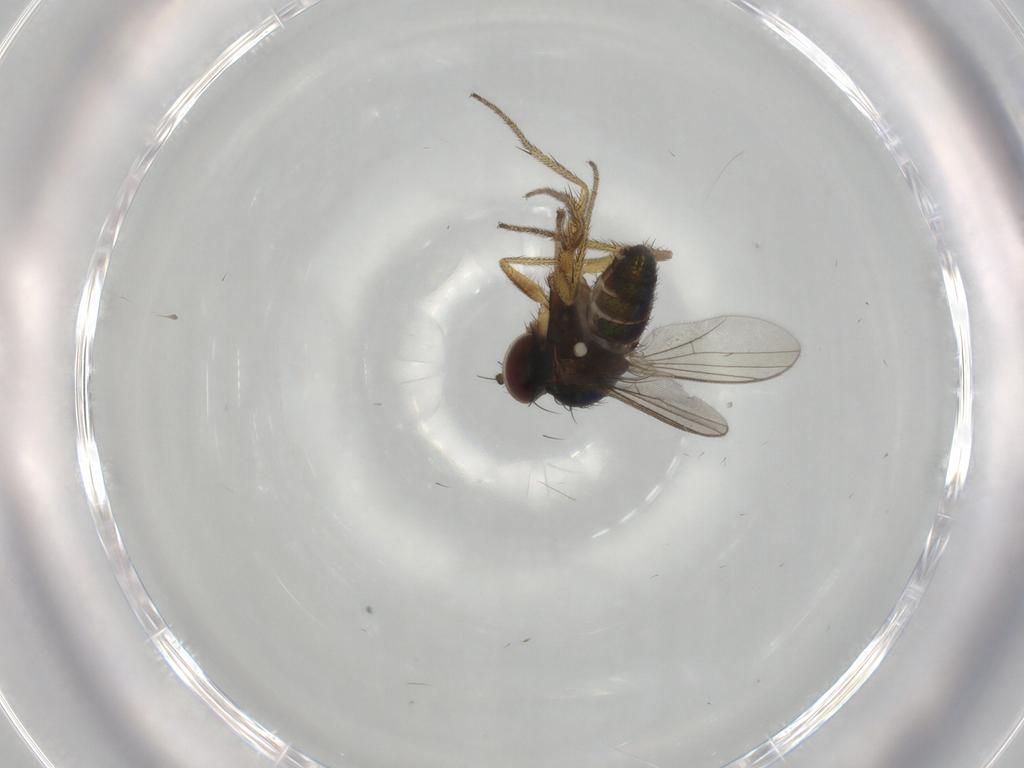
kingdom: Animalia
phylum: Arthropoda
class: Insecta
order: Diptera
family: Dolichopodidae
